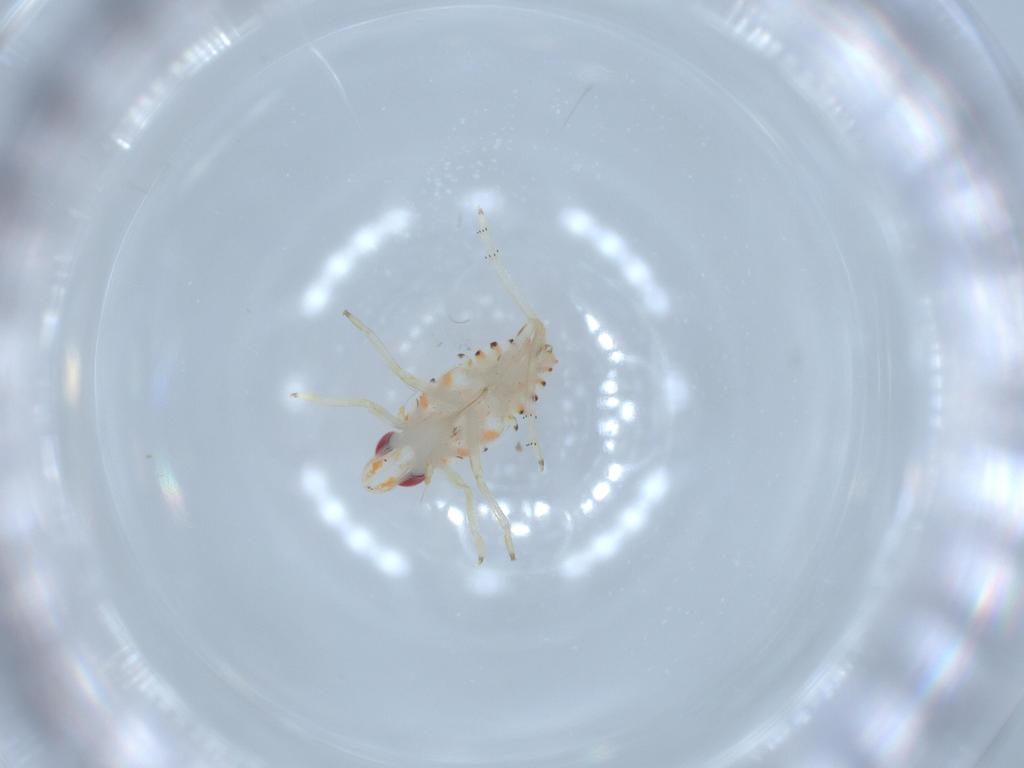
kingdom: Animalia
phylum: Arthropoda
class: Insecta
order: Hemiptera
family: Tropiduchidae
